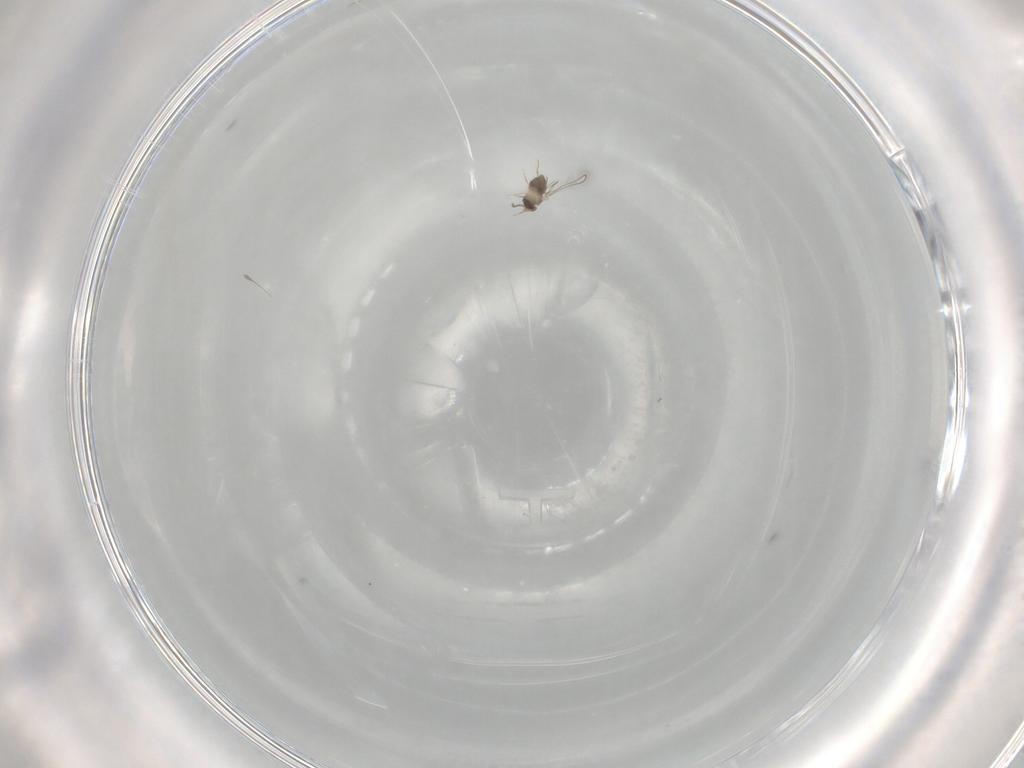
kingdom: Animalia
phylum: Arthropoda
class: Insecta
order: Hymenoptera
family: Mymaridae
